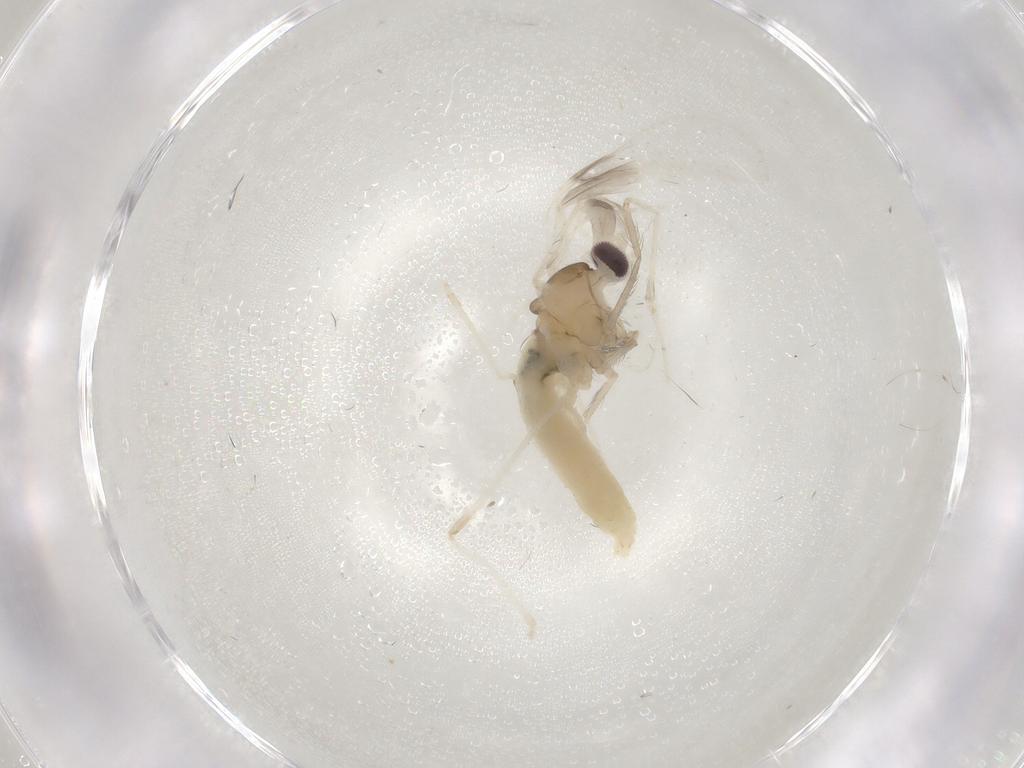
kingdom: Animalia
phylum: Arthropoda
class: Insecta
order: Diptera
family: Cecidomyiidae
